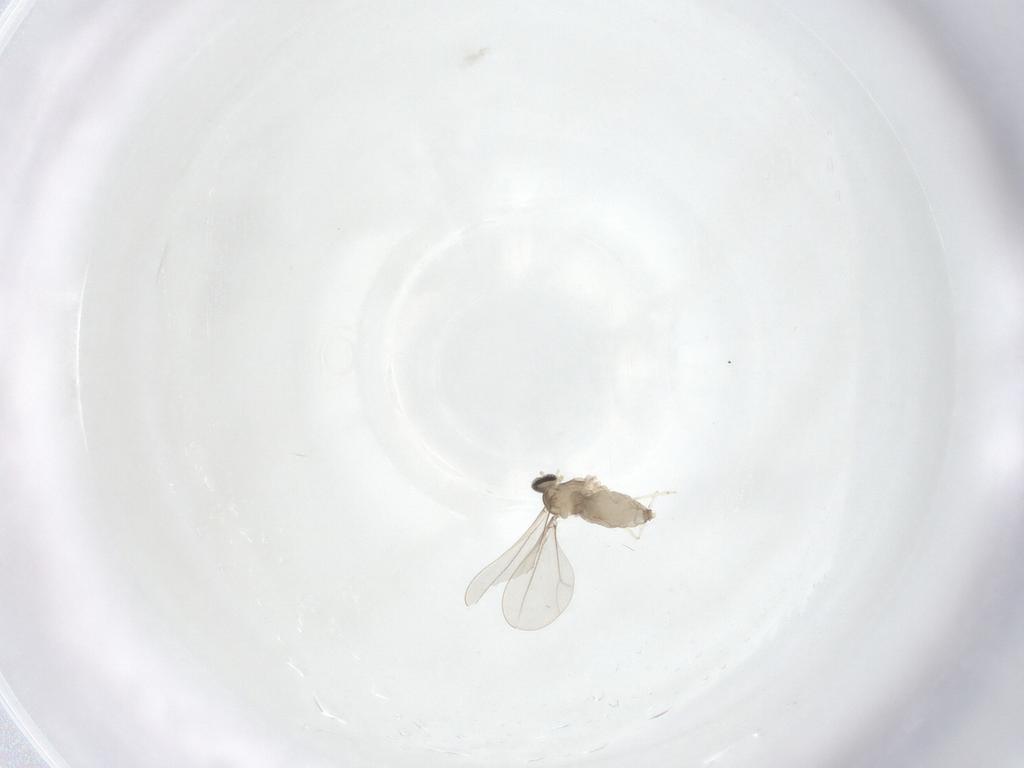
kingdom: Animalia
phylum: Arthropoda
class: Insecta
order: Diptera
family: Cecidomyiidae
